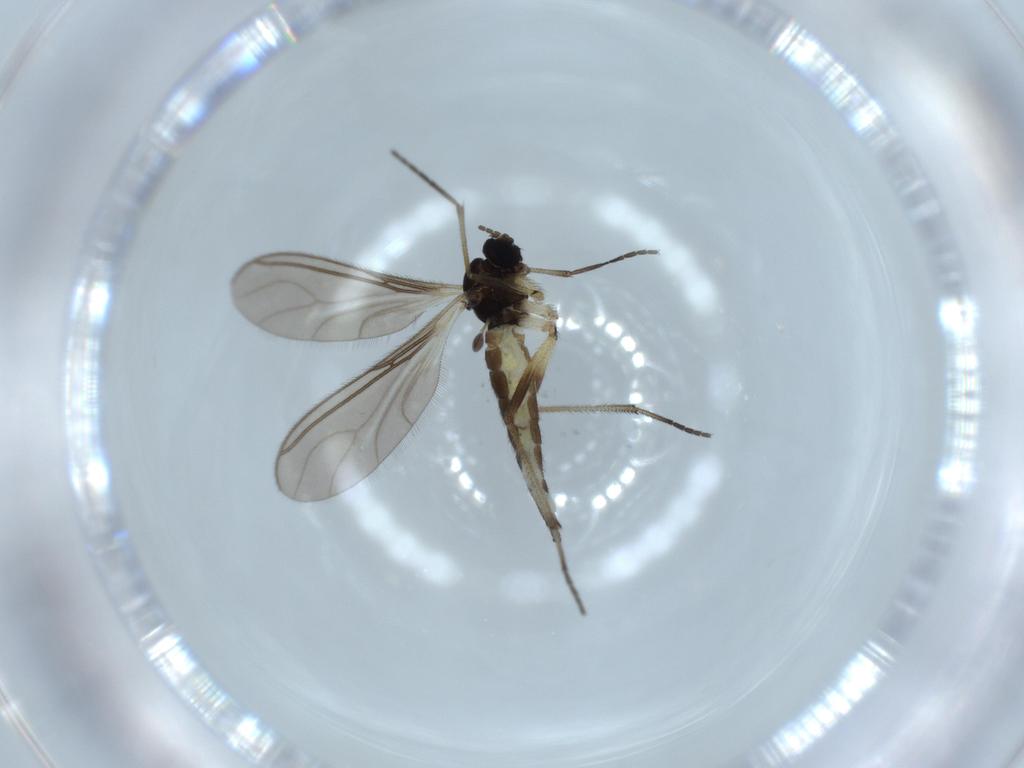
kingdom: Animalia
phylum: Arthropoda
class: Insecta
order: Diptera
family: Sciaridae
